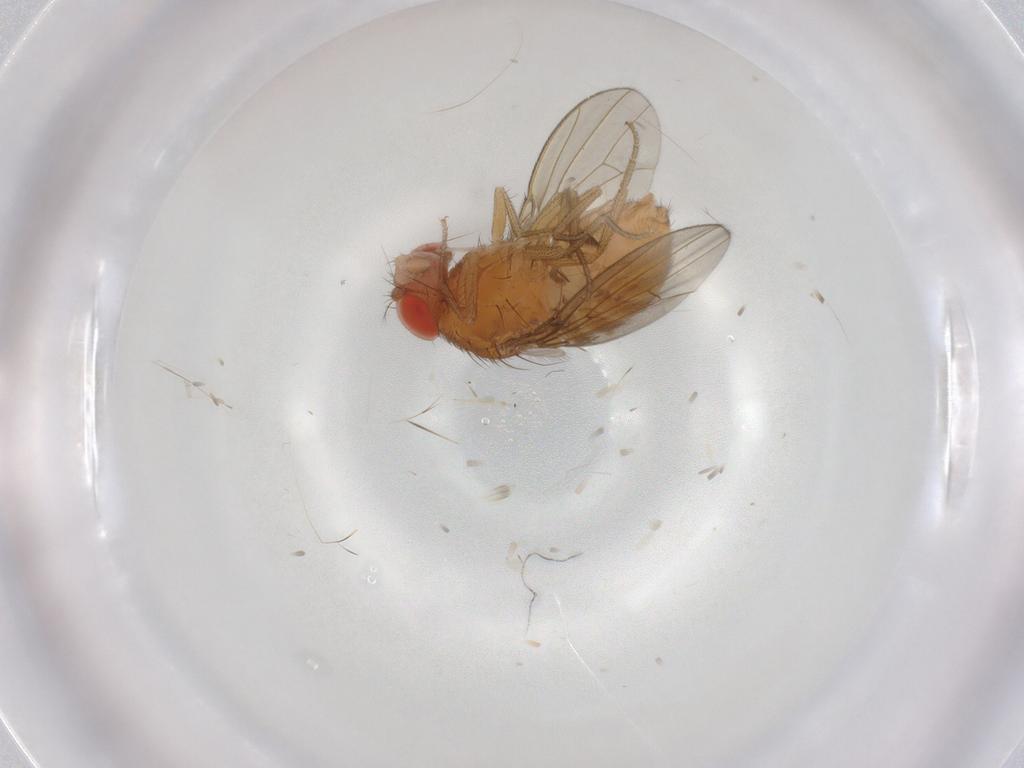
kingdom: Animalia
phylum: Arthropoda
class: Insecta
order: Diptera
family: Drosophilidae
